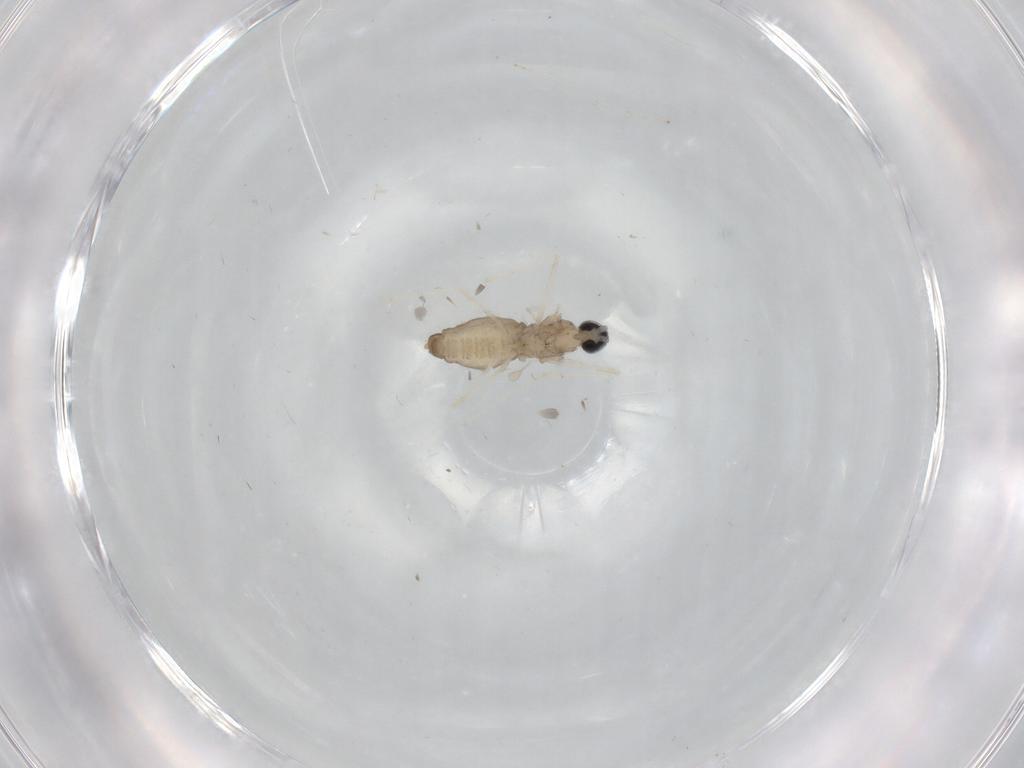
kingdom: Animalia
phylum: Arthropoda
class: Insecta
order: Diptera
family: Cecidomyiidae
